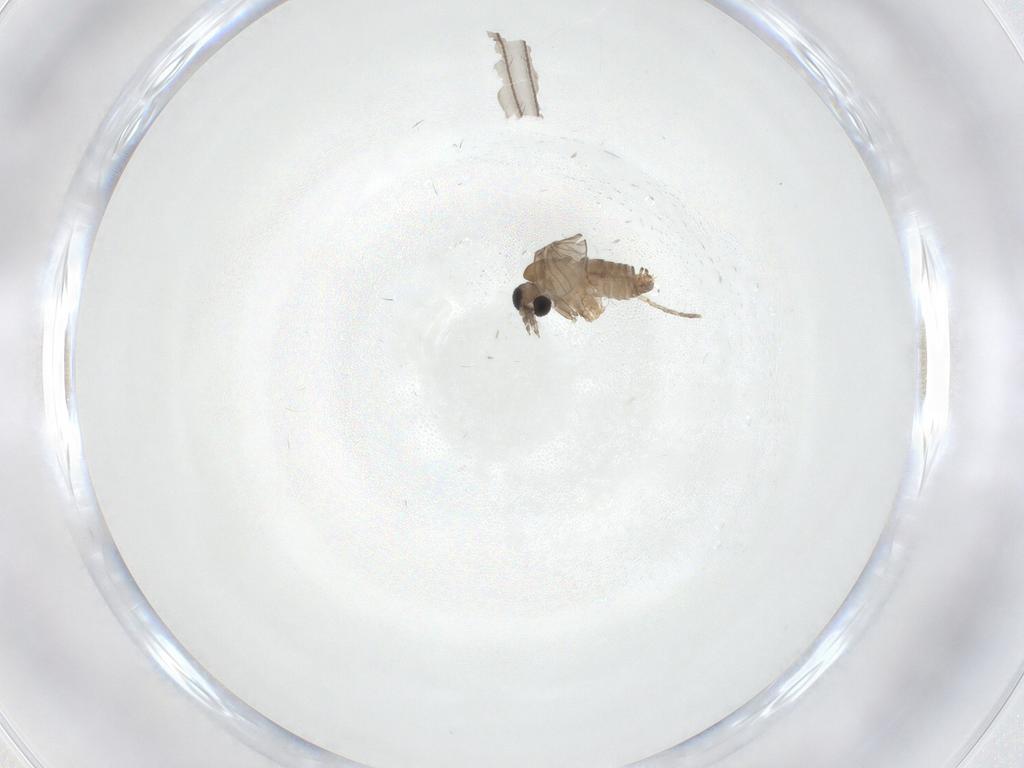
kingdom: Animalia
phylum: Arthropoda
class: Insecta
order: Diptera
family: Psychodidae
